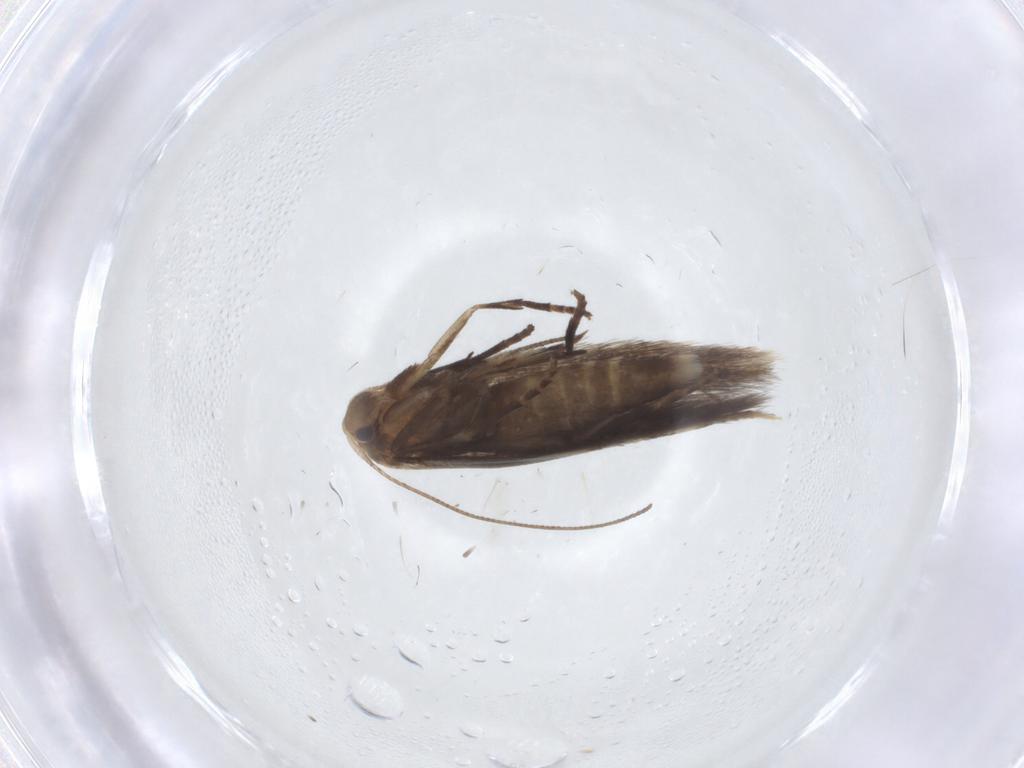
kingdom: Animalia
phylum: Arthropoda
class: Insecta
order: Lepidoptera
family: Bucculatricidae
